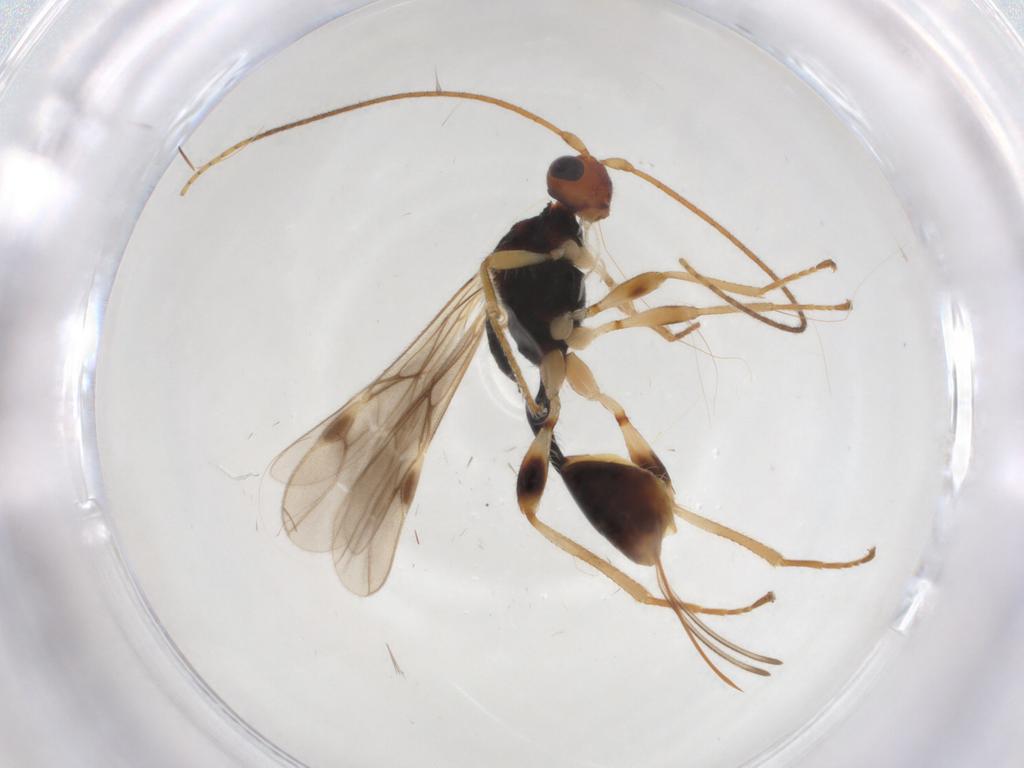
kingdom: Animalia
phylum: Arthropoda
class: Insecta
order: Hymenoptera
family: Braconidae
